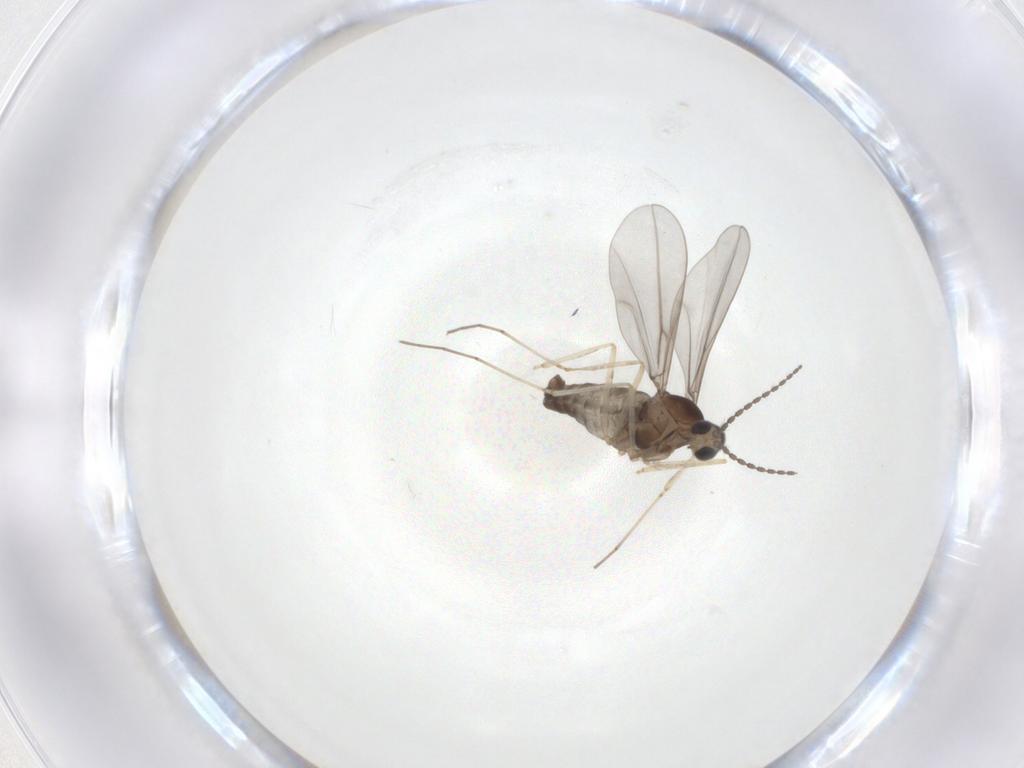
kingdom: Animalia
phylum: Arthropoda
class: Insecta
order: Diptera
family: Cecidomyiidae
